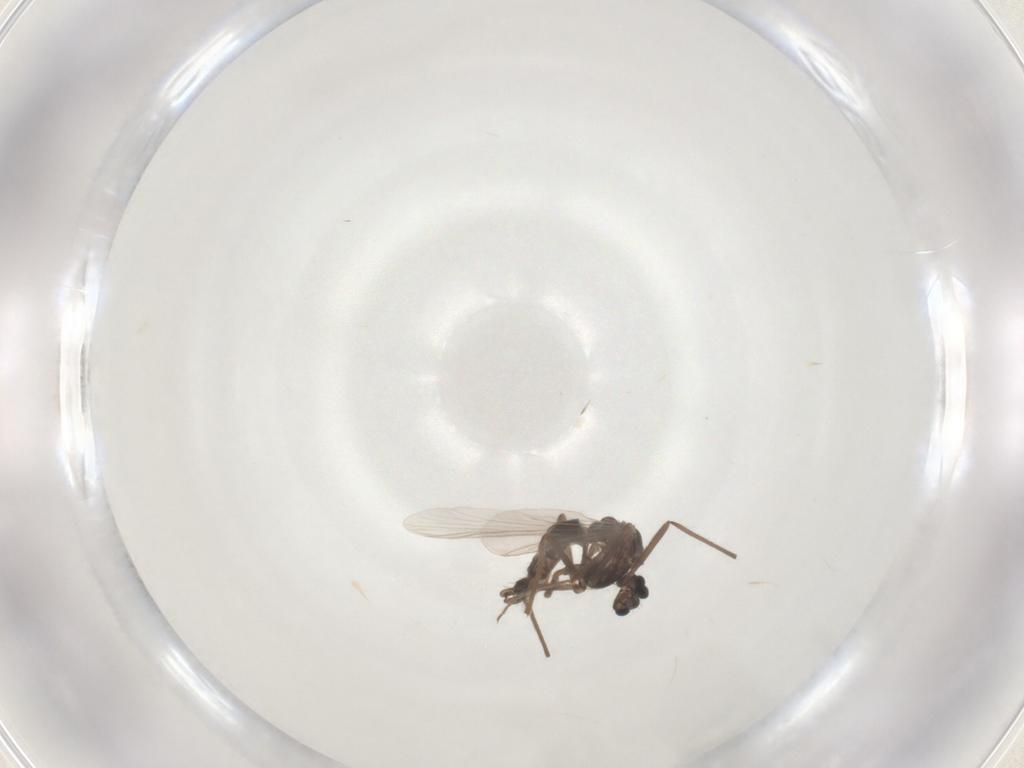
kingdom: Animalia
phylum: Arthropoda
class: Insecta
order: Diptera
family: Chironomidae
